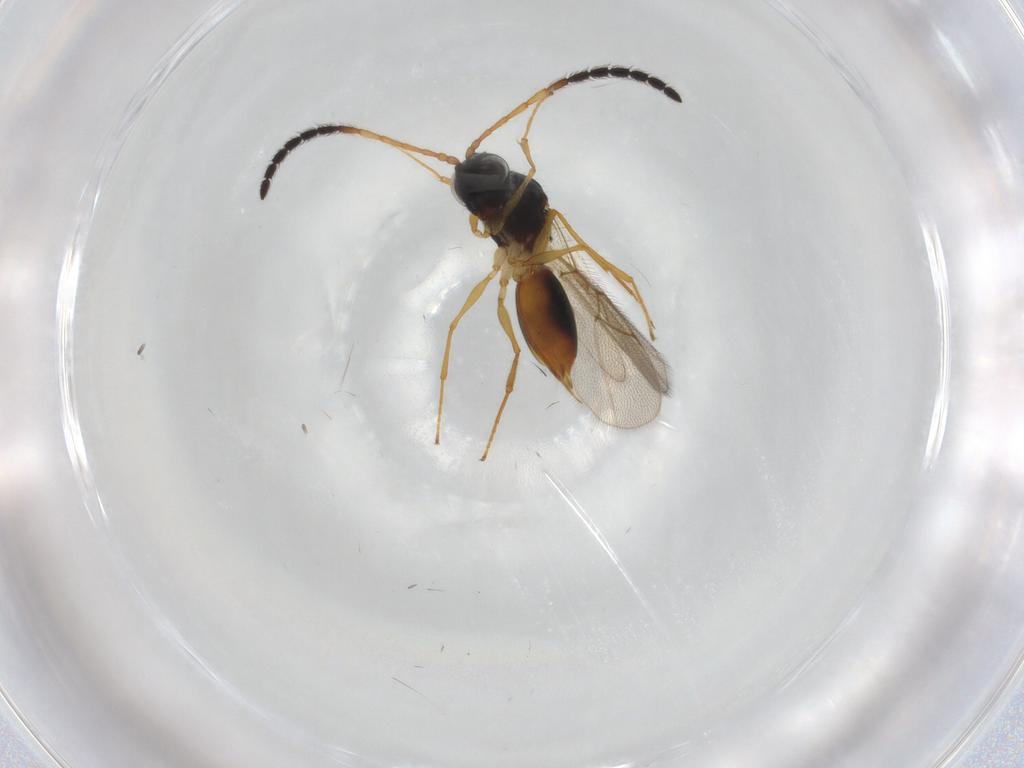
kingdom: Animalia
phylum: Arthropoda
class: Insecta
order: Hymenoptera
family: Figitidae
